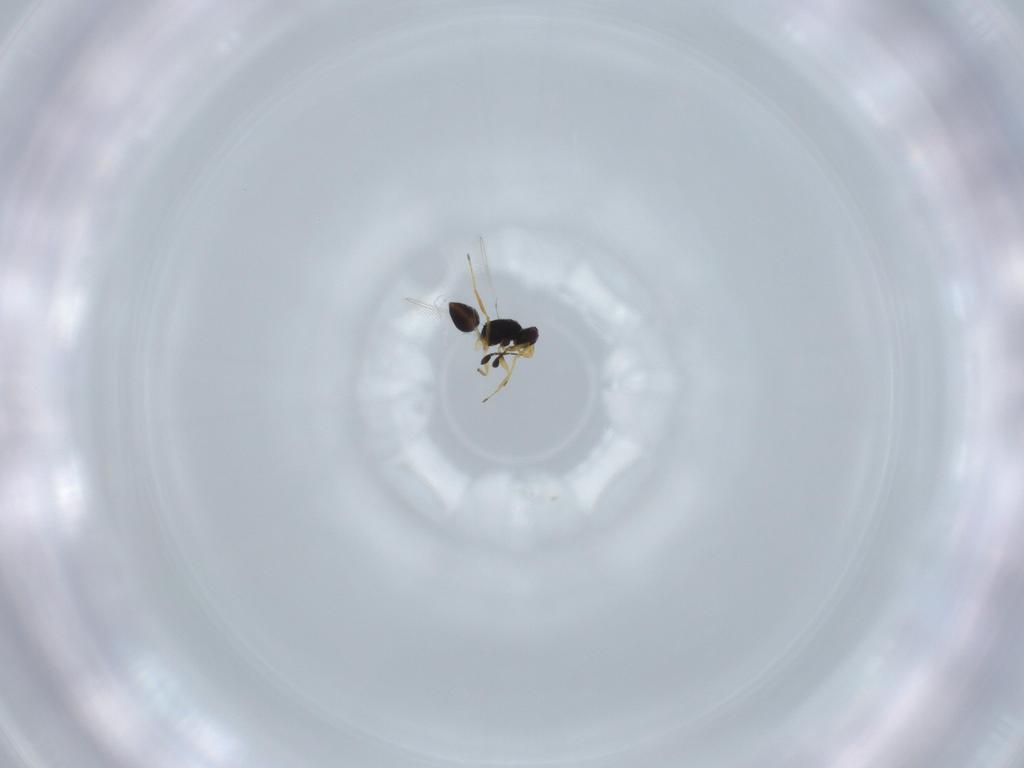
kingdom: Animalia
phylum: Arthropoda
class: Insecta
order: Hymenoptera
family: Mymaridae
